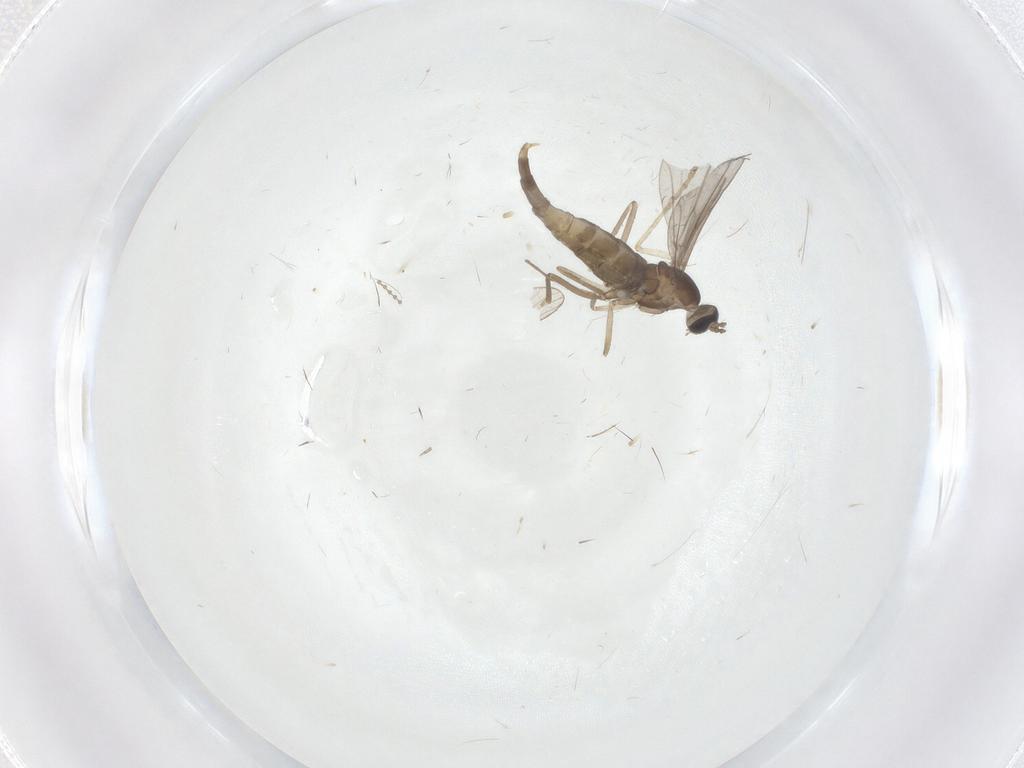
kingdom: Animalia
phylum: Arthropoda
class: Insecta
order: Diptera
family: Cecidomyiidae
